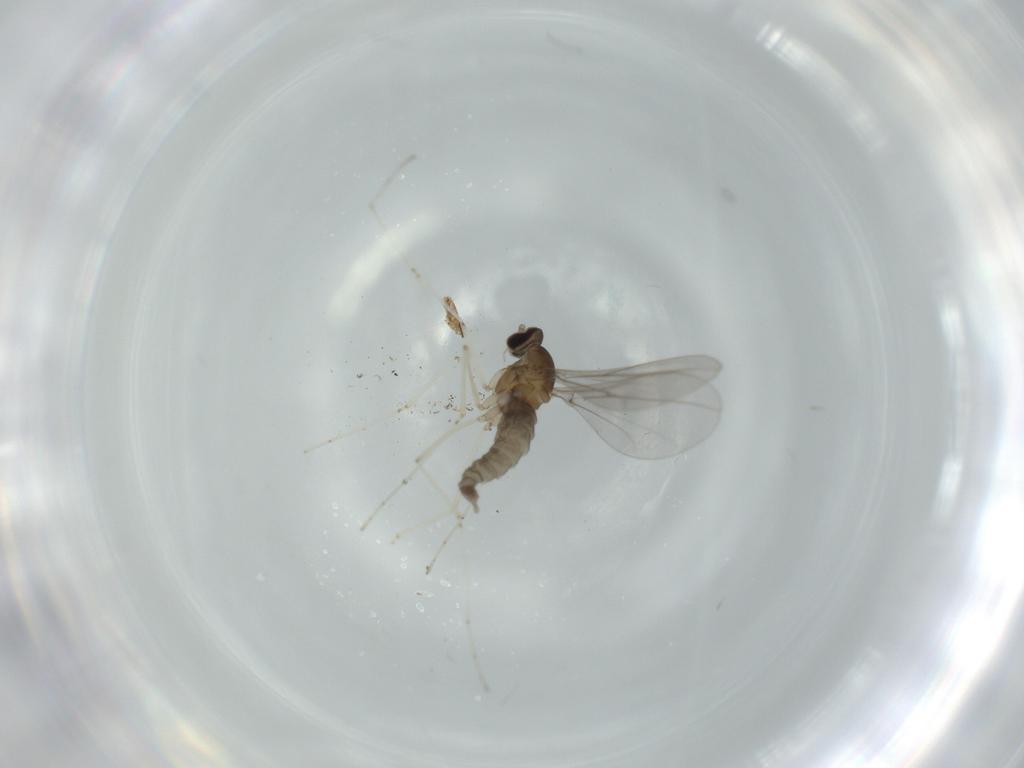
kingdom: Animalia
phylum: Arthropoda
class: Insecta
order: Diptera
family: Cecidomyiidae
